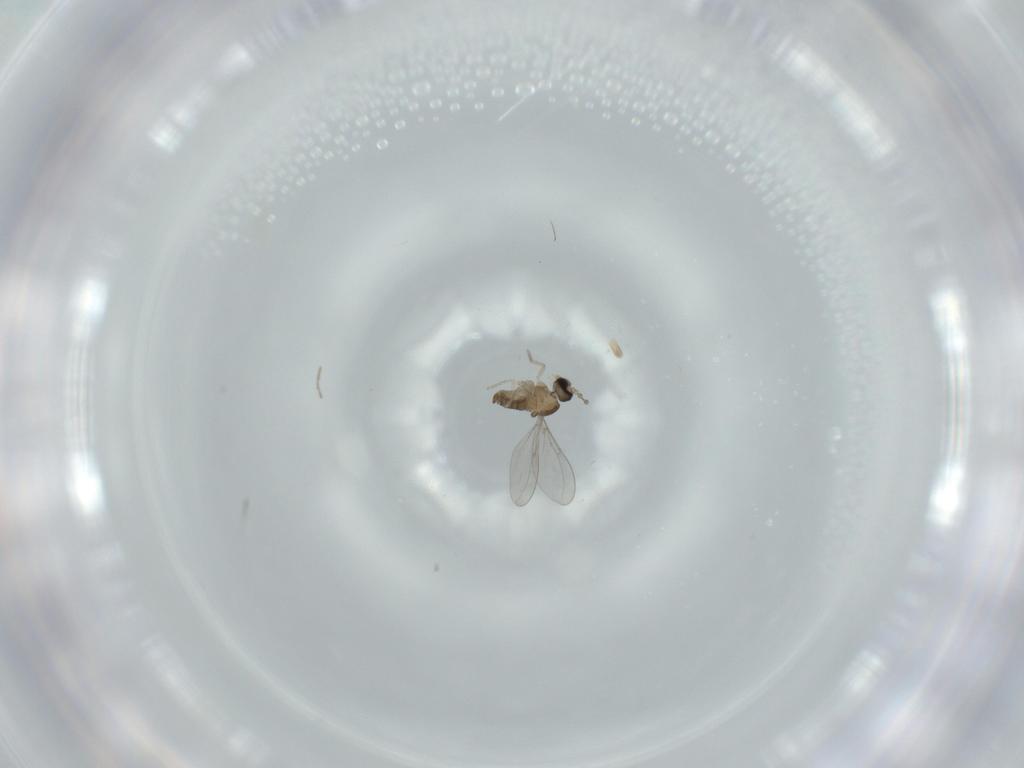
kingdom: Animalia
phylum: Arthropoda
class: Insecta
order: Diptera
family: Cecidomyiidae
